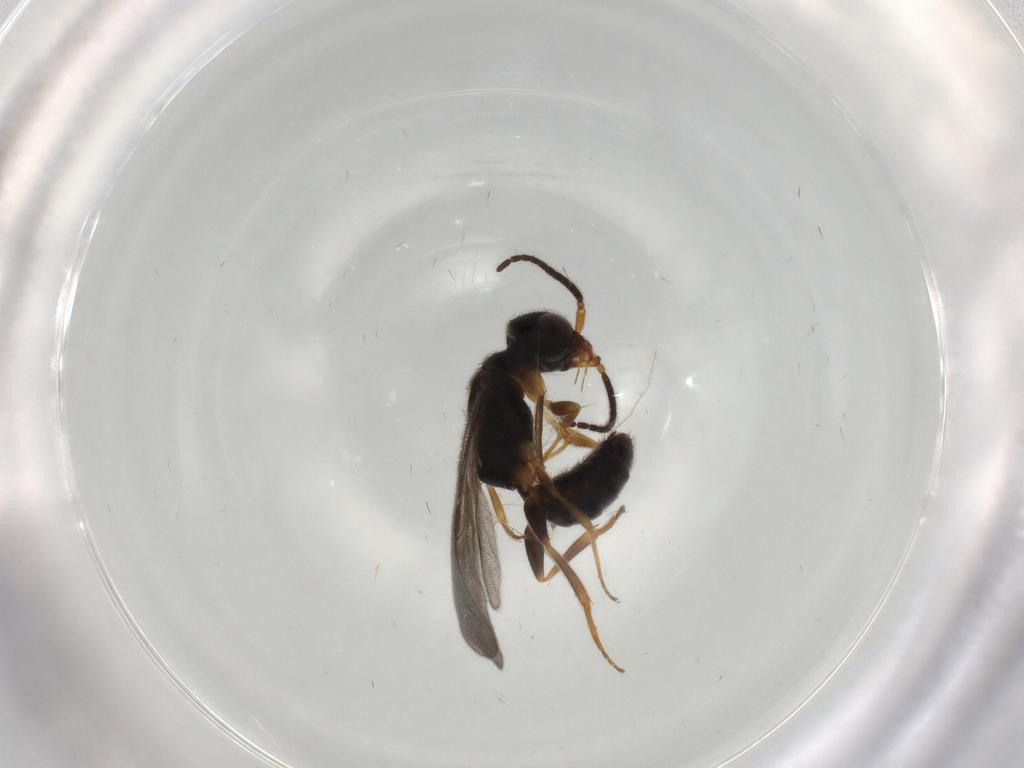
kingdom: Animalia
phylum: Arthropoda
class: Insecta
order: Hymenoptera
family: Bethylidae
